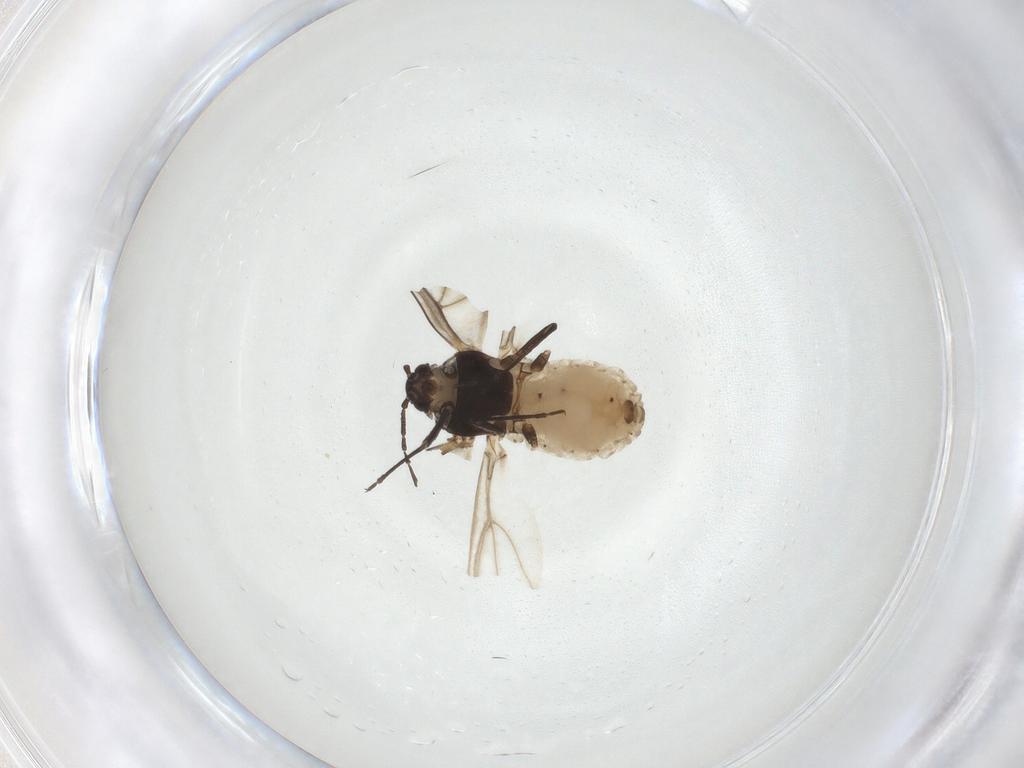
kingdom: Animalia
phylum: Arthropoda
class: Insecta
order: Hemiptera
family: Aphididae
